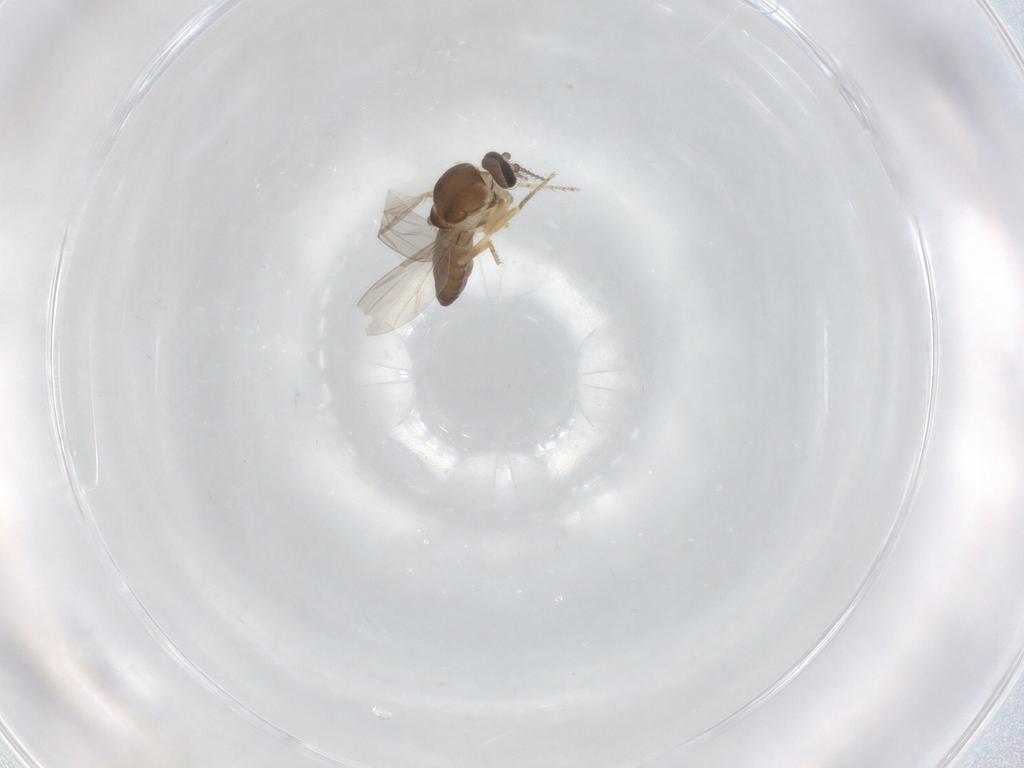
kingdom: Animalia
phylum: Arthropoda
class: Insecta
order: Diptera
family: Ceratopogonidae
